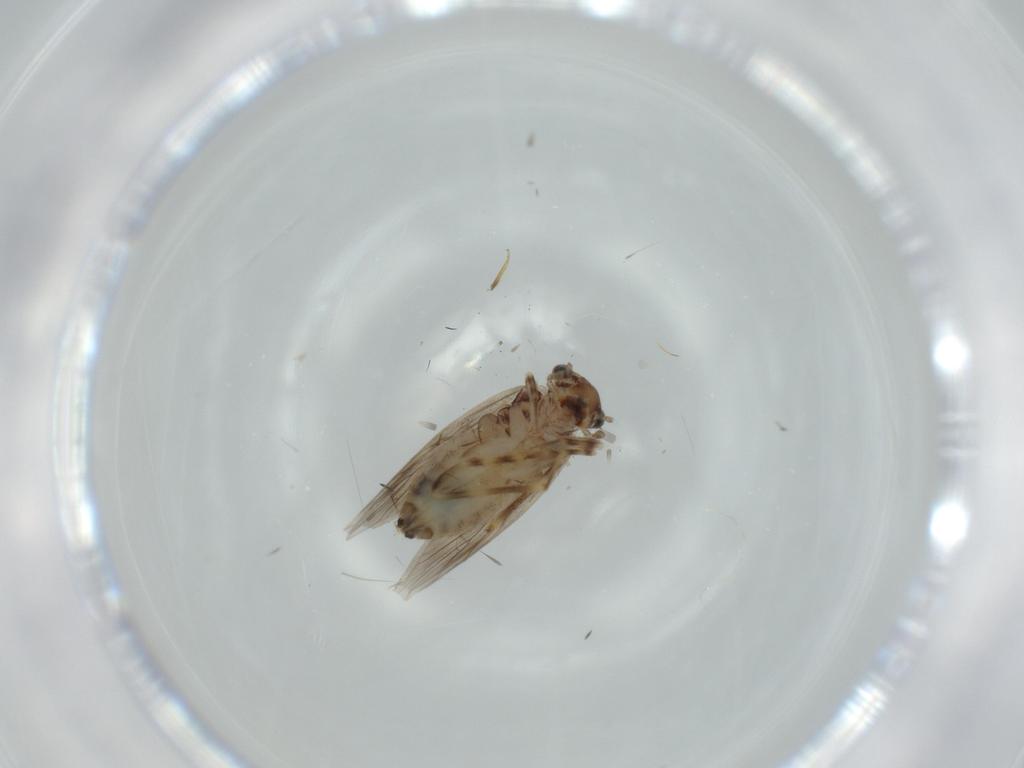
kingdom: Animalia
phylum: Arthropoda
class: Insecta
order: Psocodea
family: Lepidopsocidae
